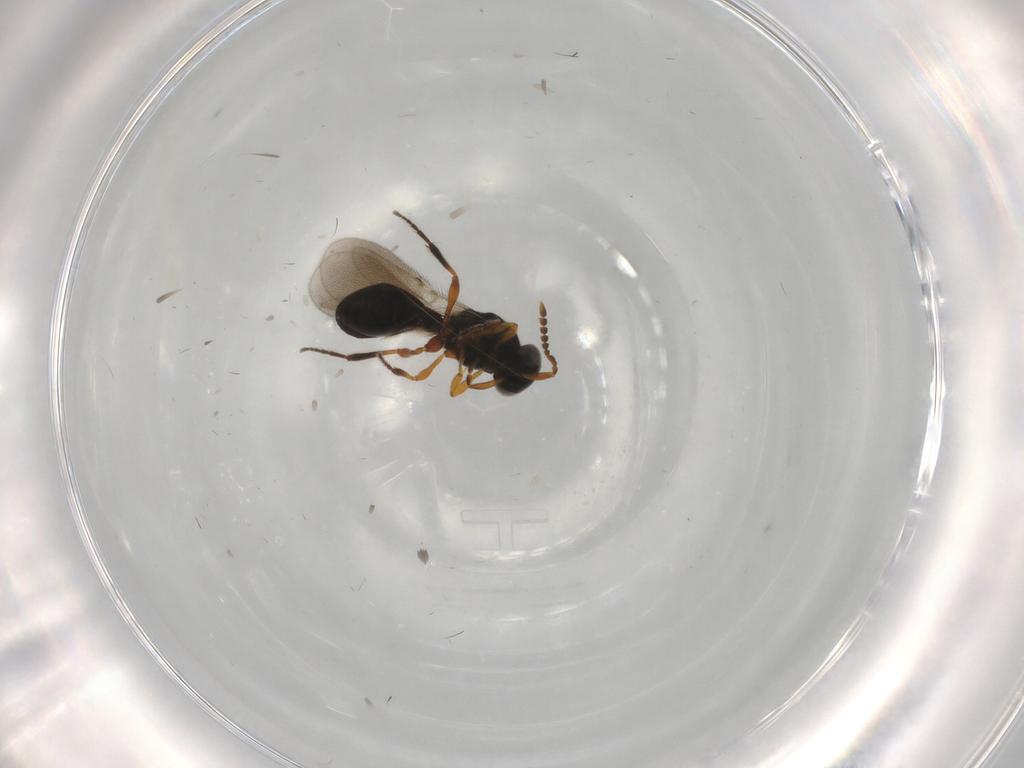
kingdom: Animalia
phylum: Arthropoda
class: Insecta
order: Hymenoptera
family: Platygastridae
